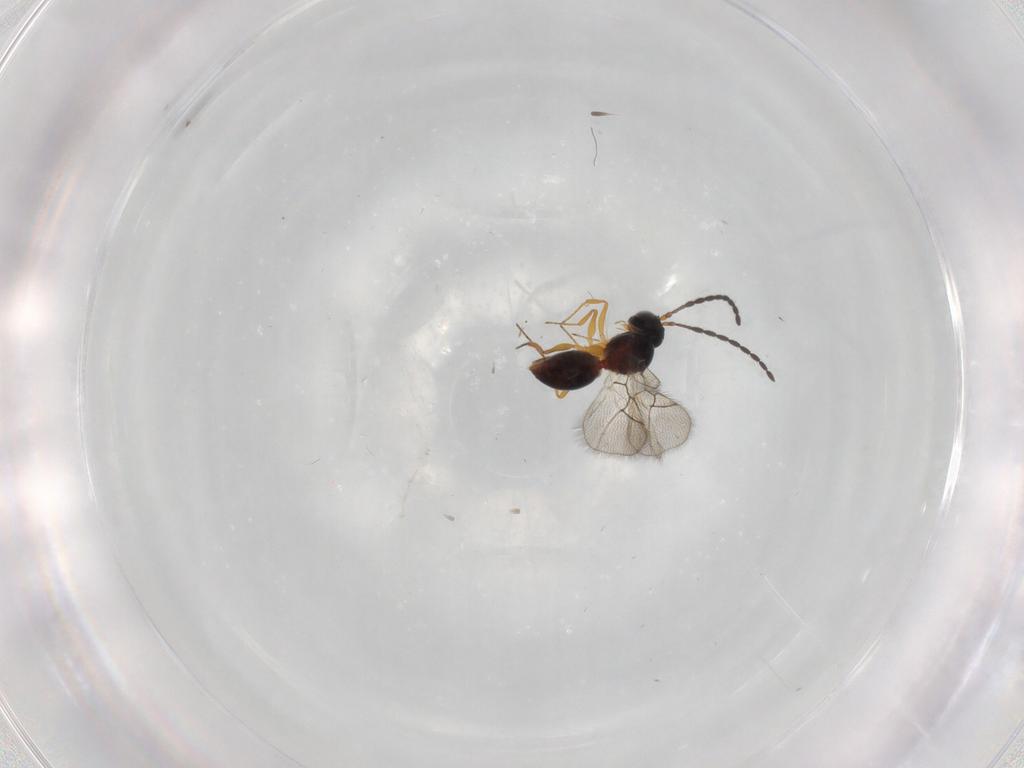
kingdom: Animalia
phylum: Arthropoda
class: Insecta
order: Hymenoptera
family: Figitidae
